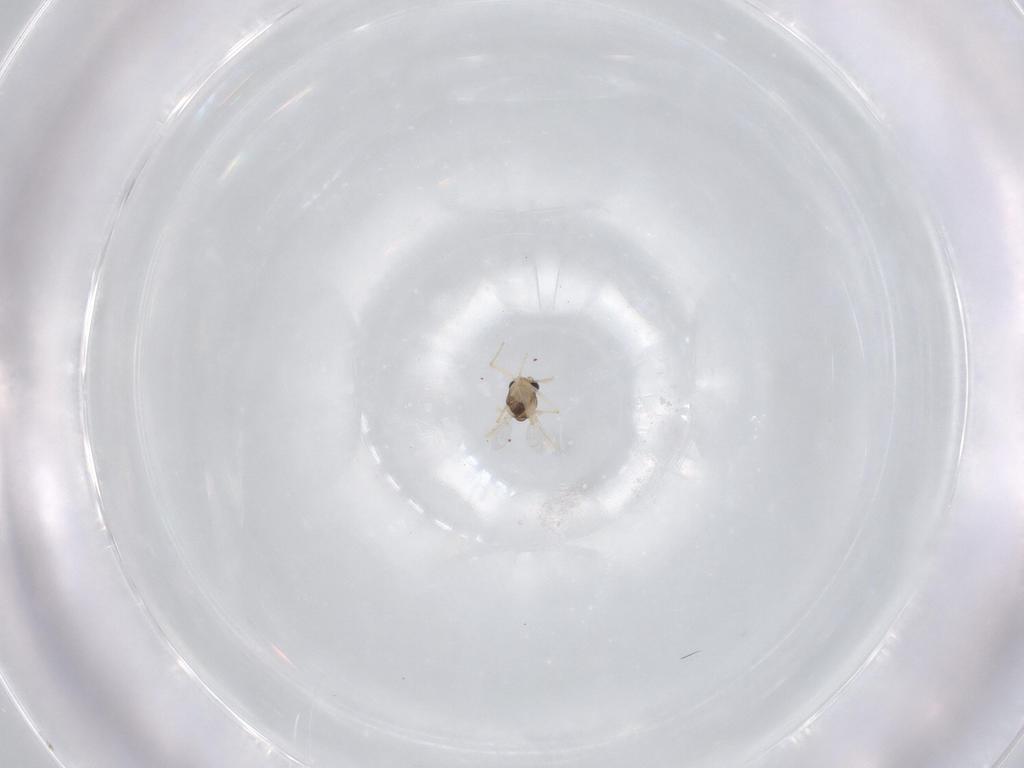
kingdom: Animalia
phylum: Arthropoda
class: Insecta
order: Diptera
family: Chironomidae
